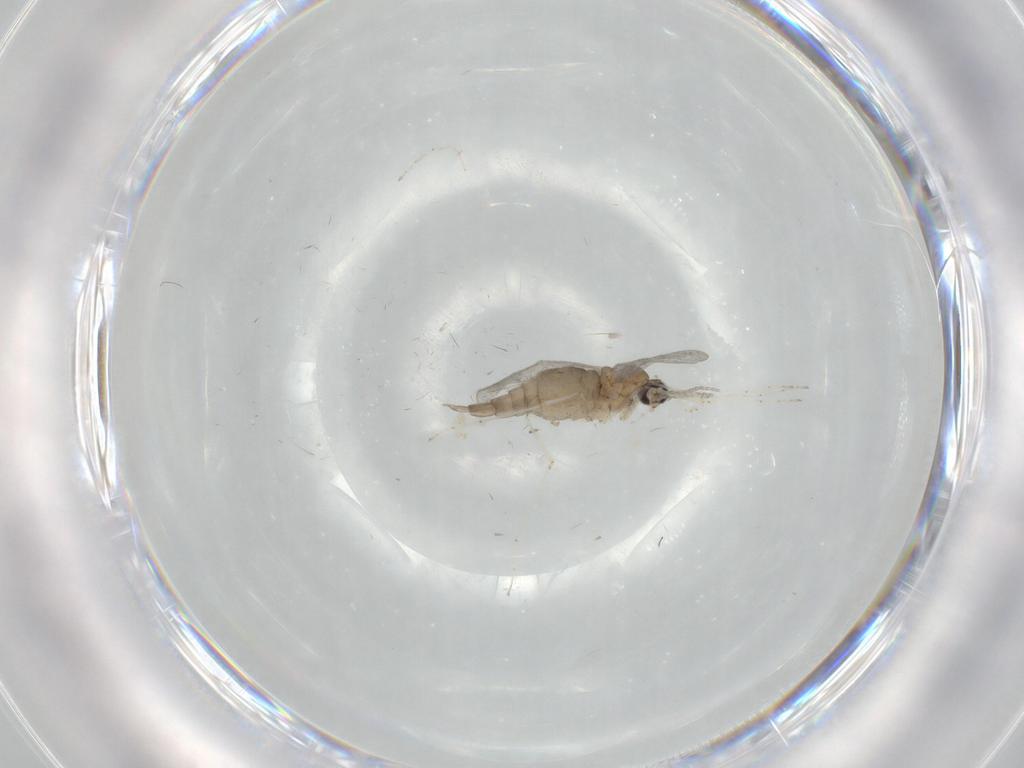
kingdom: Animalia
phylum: Arthropoda
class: Insecta
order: Diptera
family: Cecidomyiidae
